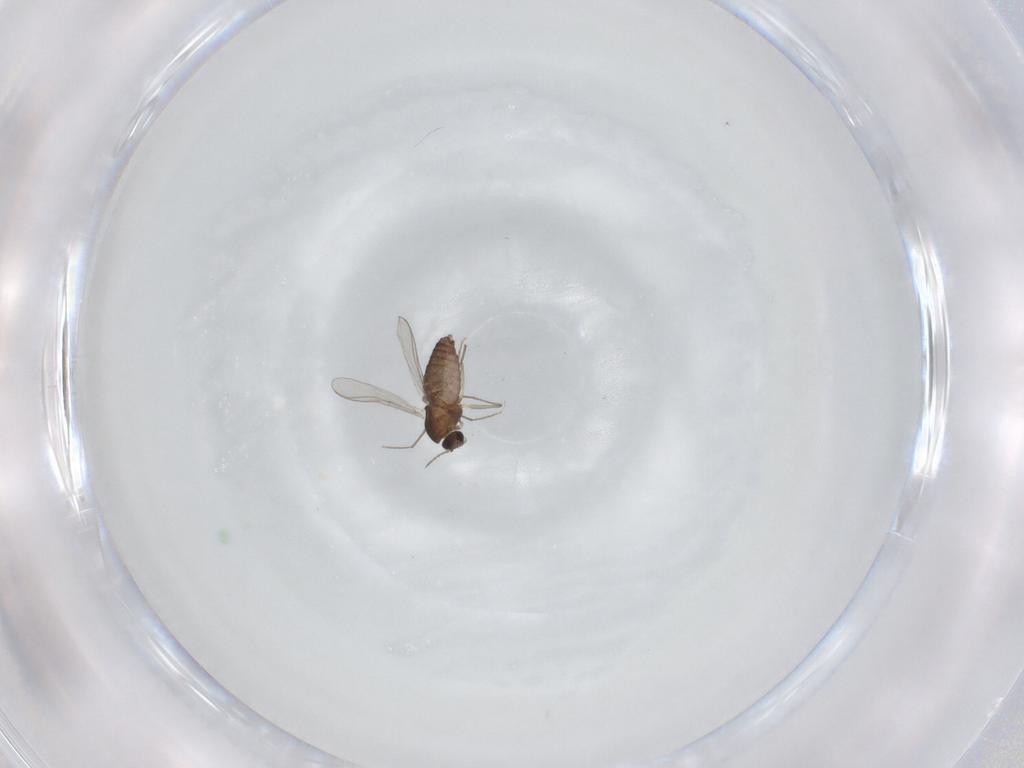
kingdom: Animalia
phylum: Arthropoda
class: Insecta
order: Diptera
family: Chironomidae
